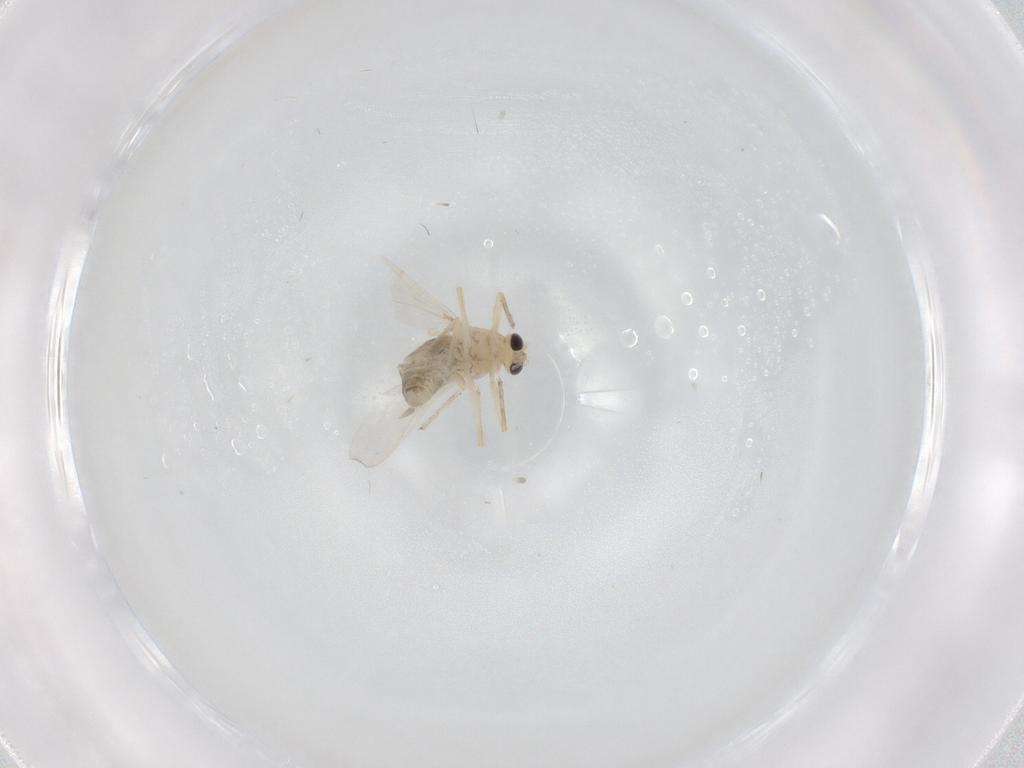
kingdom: Animalia
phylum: Arthropoda
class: Insecta
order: Diptera
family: Chironomidae
